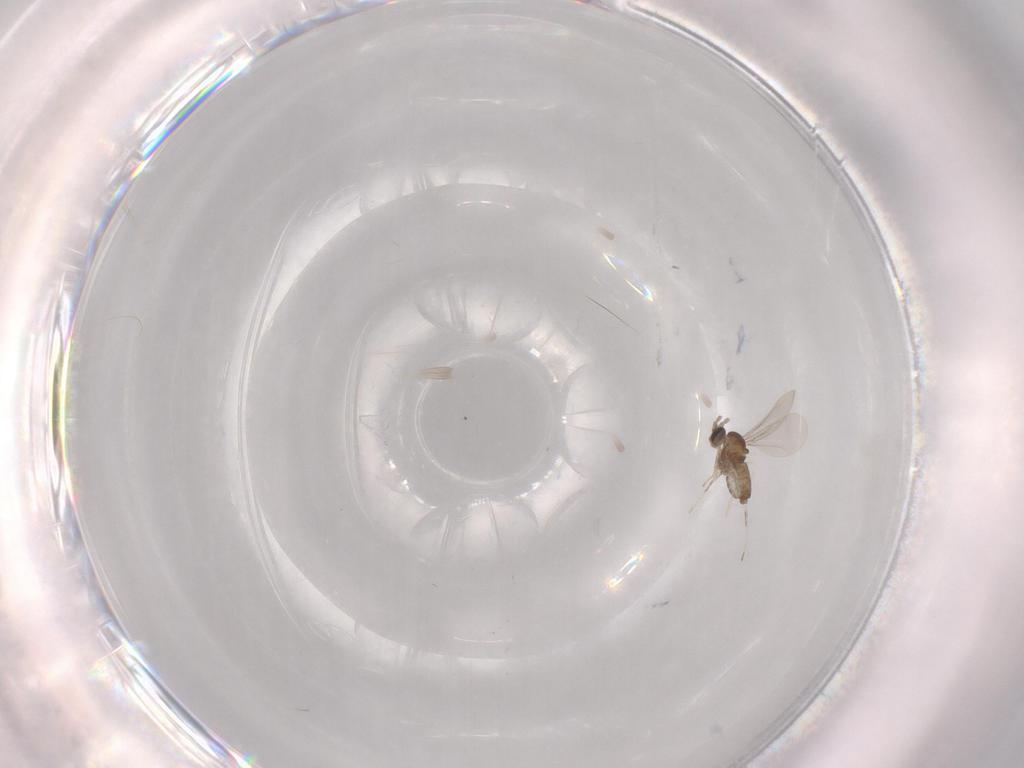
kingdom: Animalia
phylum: Arthropoda
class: Insecta
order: Diptera
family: Cecidomyiidae
